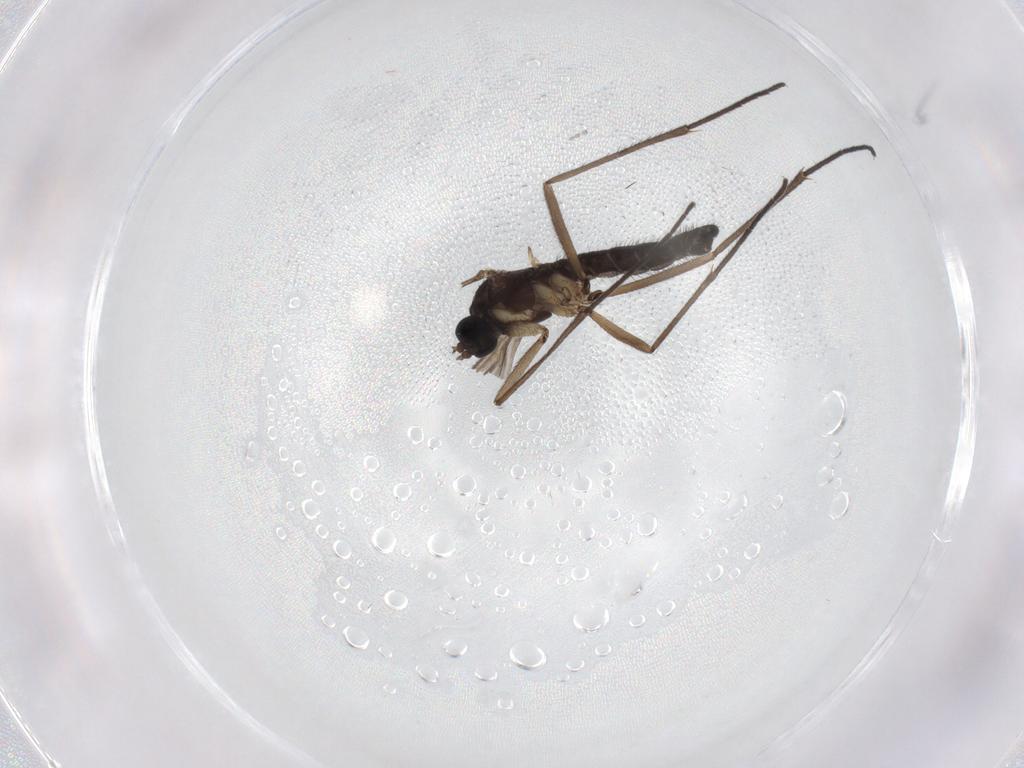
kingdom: Animalia
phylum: Arthropoda
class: Insecta
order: Diptera
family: Sciaridae
